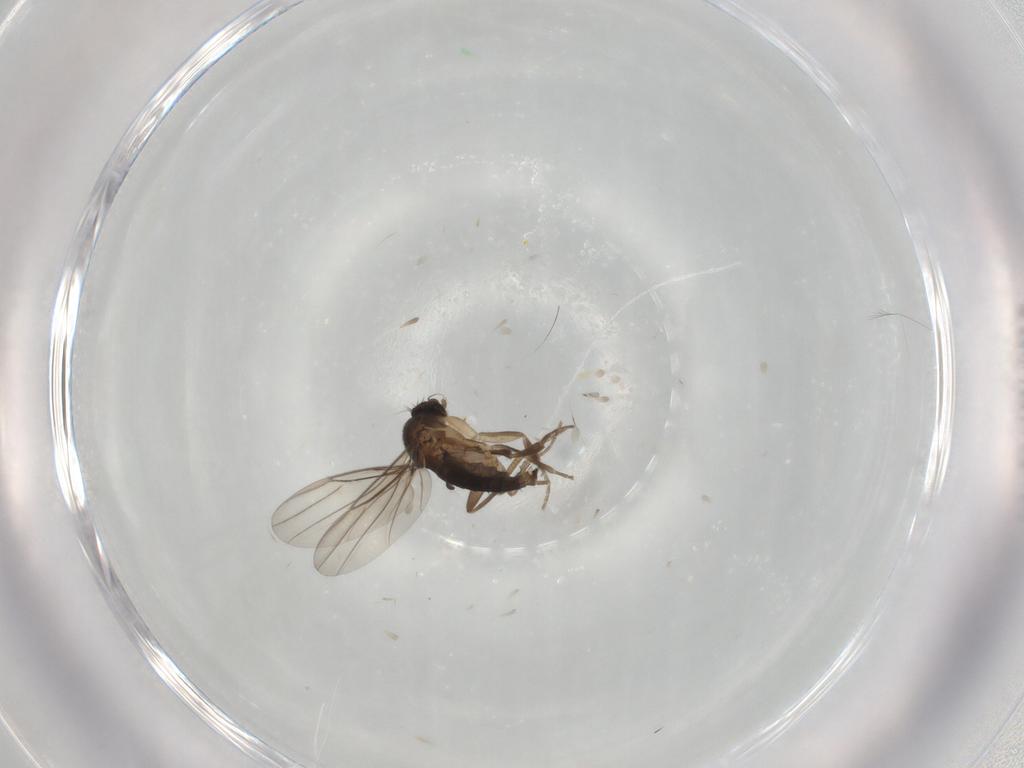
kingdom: Animalia
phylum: Arthropoda
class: Insecta
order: Diptera
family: Phoridae
